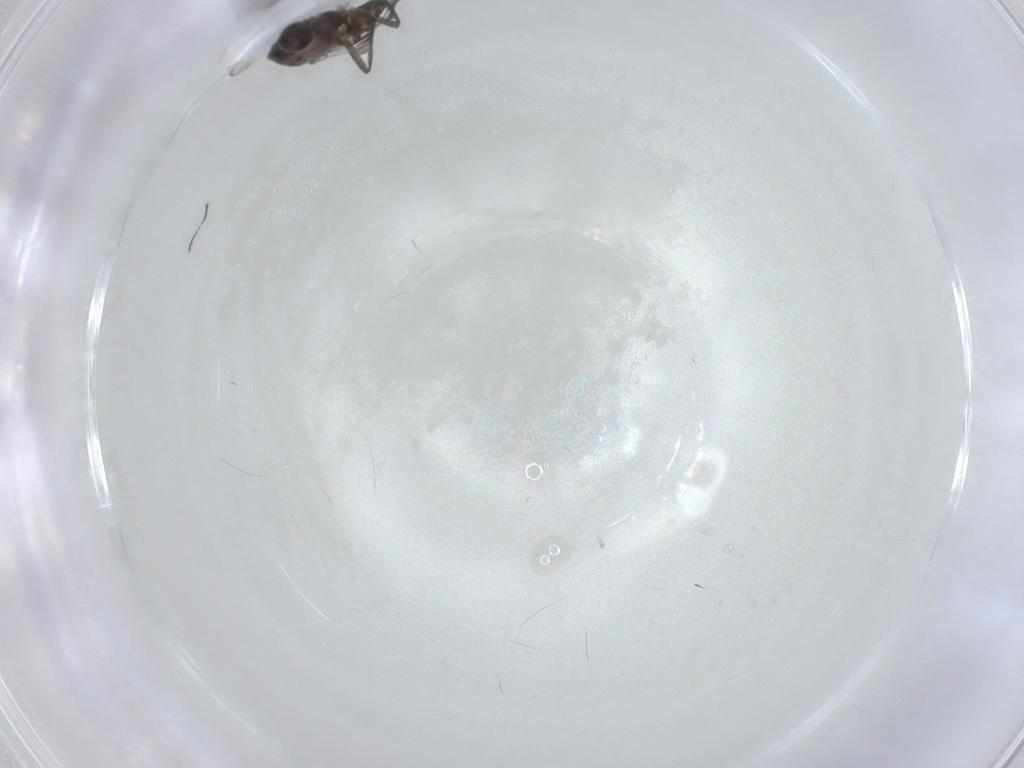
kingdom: Animalia
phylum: Arthropoda
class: Insecta
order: Diptera
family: Chironomidae
